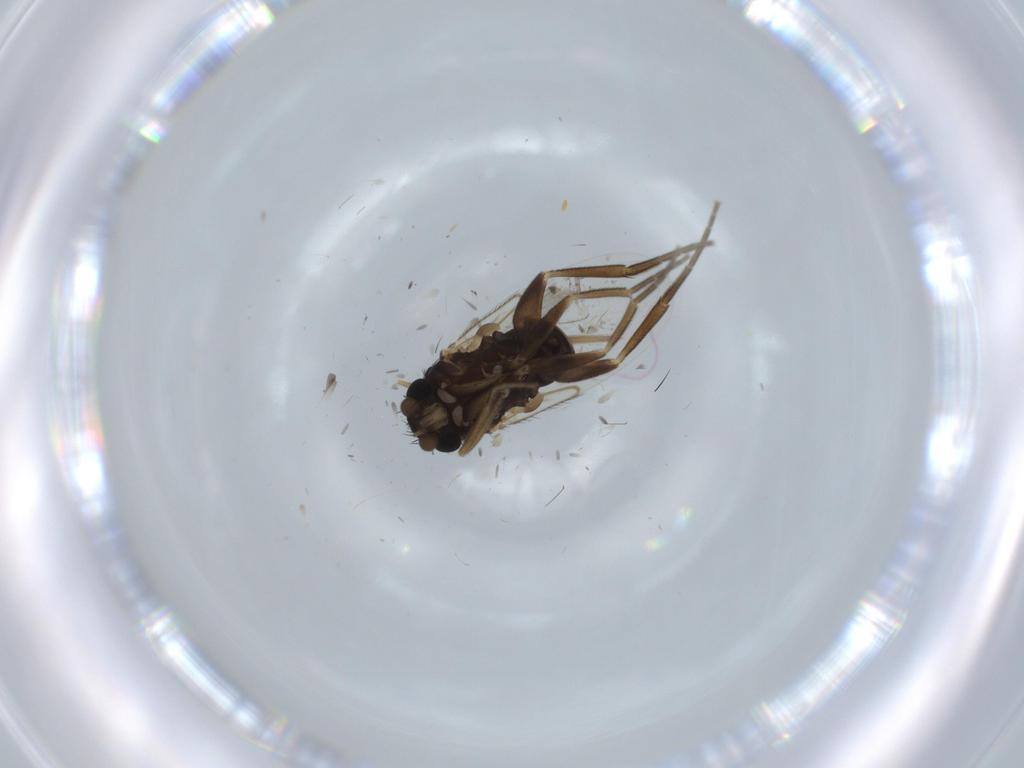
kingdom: Animalia
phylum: Arthropoda
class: Insecta
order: Diptera
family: Phoridae
